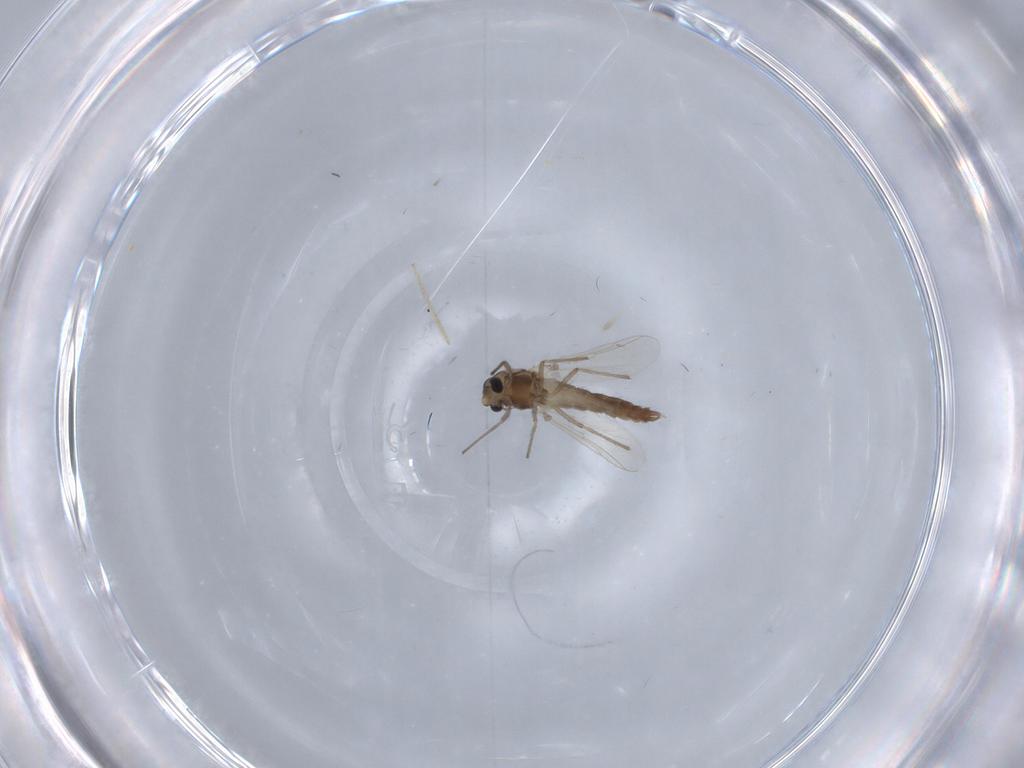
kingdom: Animalia
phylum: Arthropoda
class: Insecta
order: Diptera
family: Chironomidae
